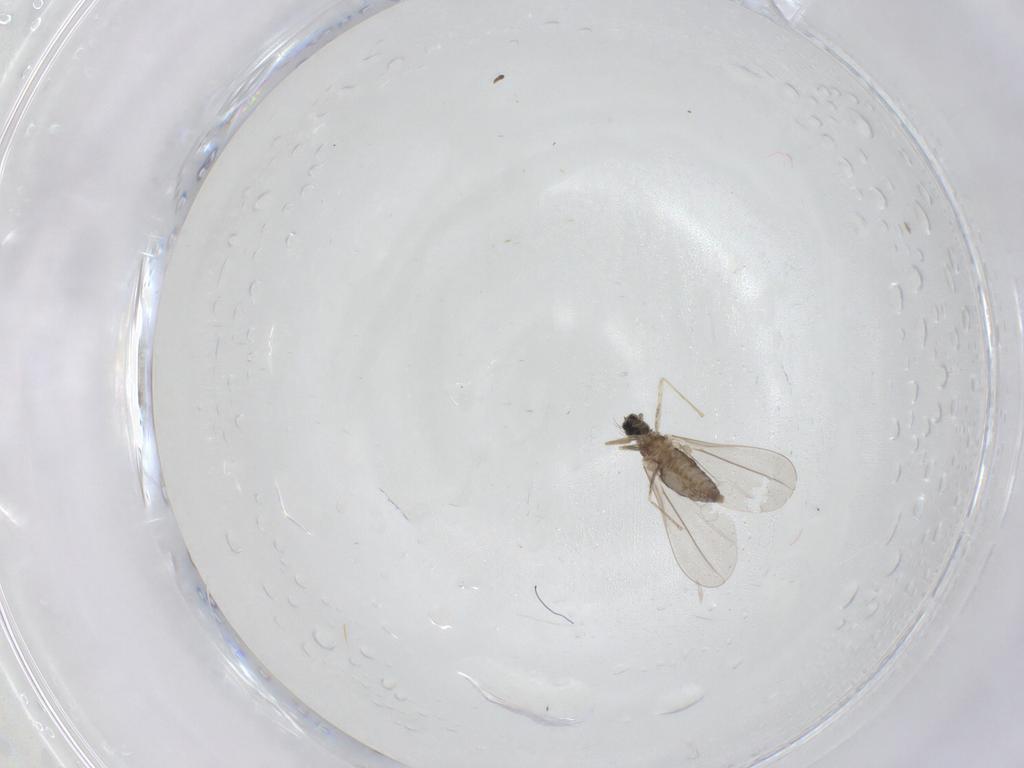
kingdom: Animalia
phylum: Arthropoda
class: Insecta
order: Diptera
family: Cecidomyiidae
